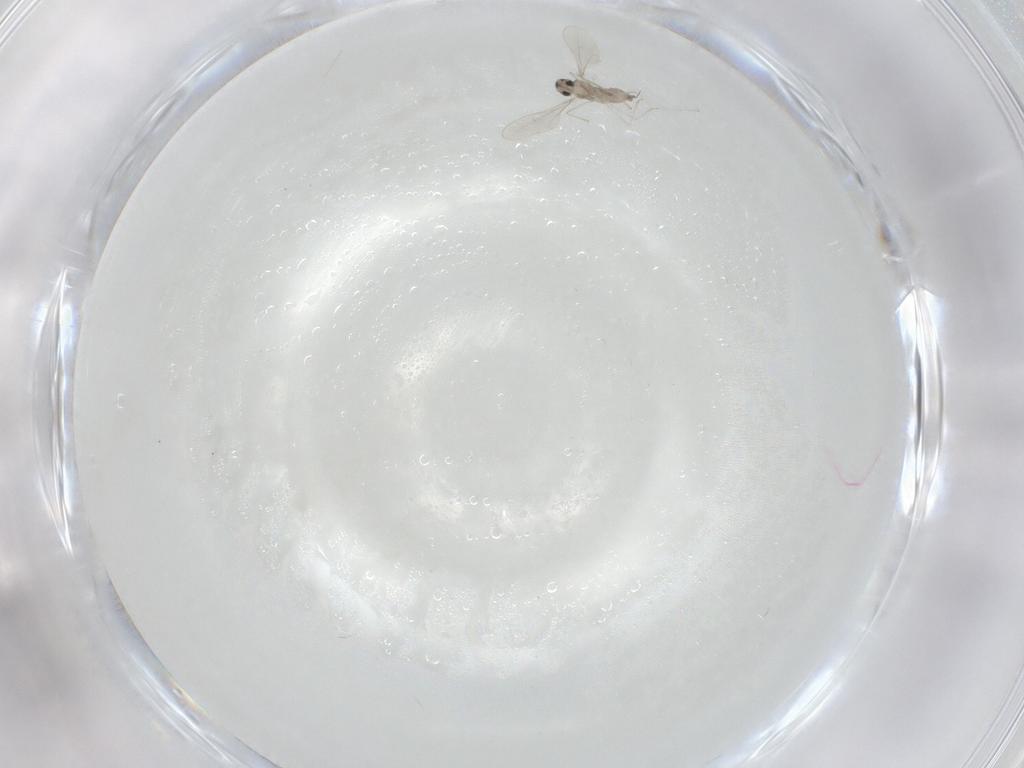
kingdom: Animalia
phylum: Arthropoda
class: Insecta
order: Diptera
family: Cecidomyiidae
